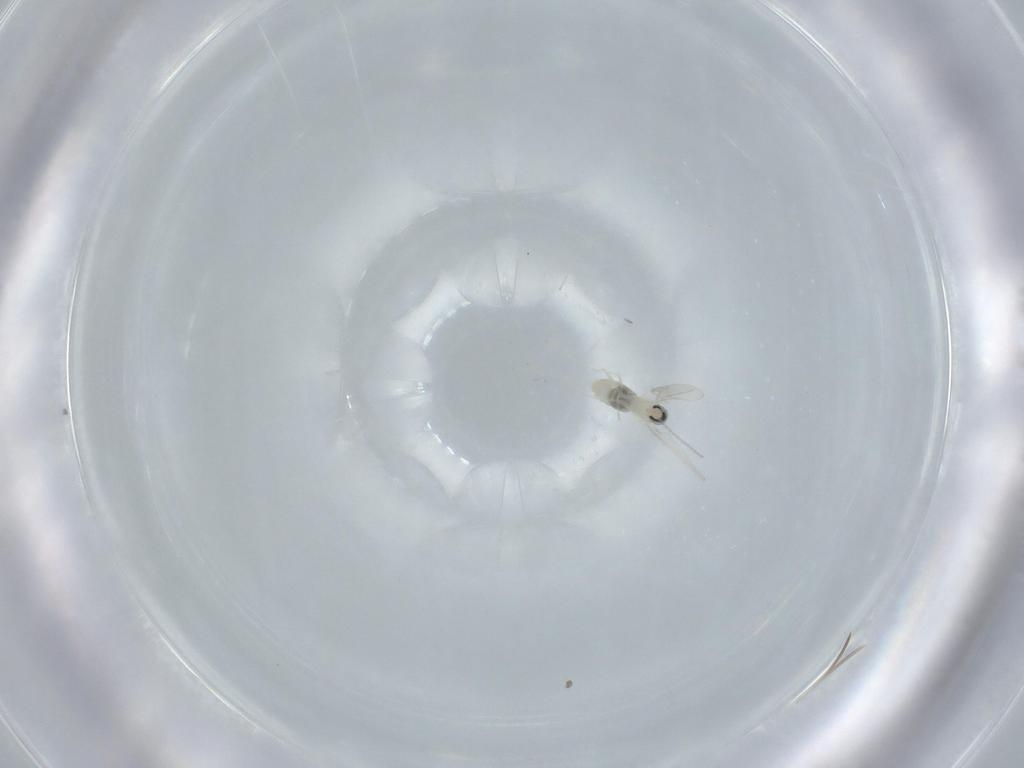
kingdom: Animalia
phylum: Arthropoda
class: Insecta
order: Diptera
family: Cecidomyiidae
